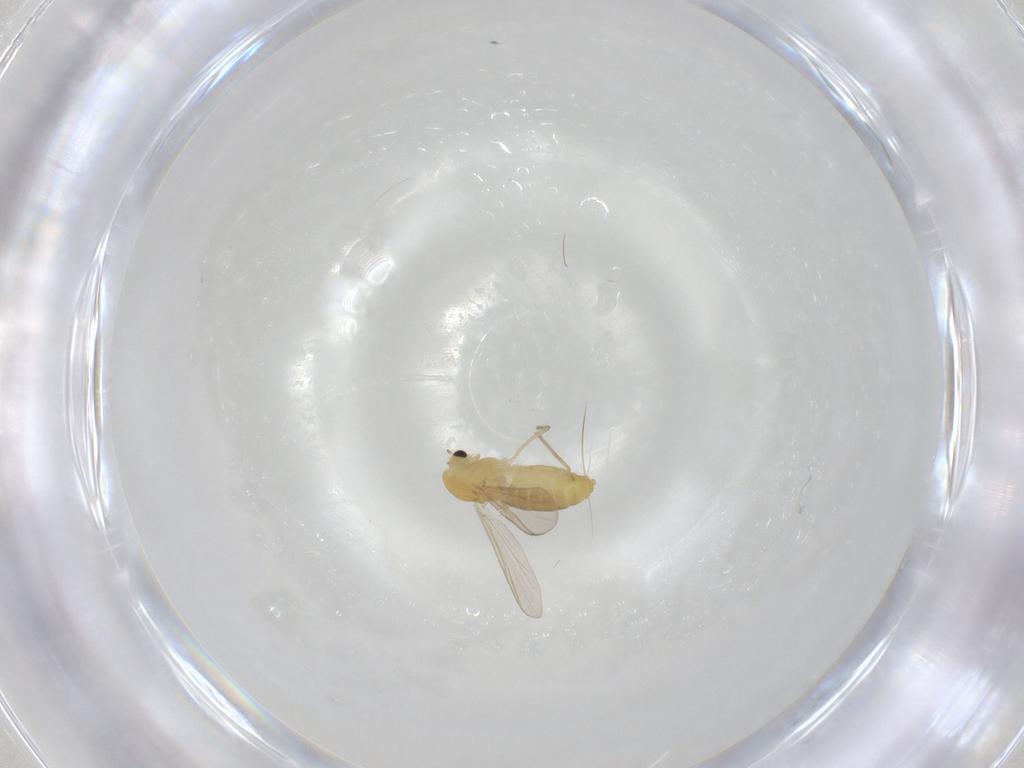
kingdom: Animalia
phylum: Arthropoda
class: Insecta
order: Diptera
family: Chironomidae
